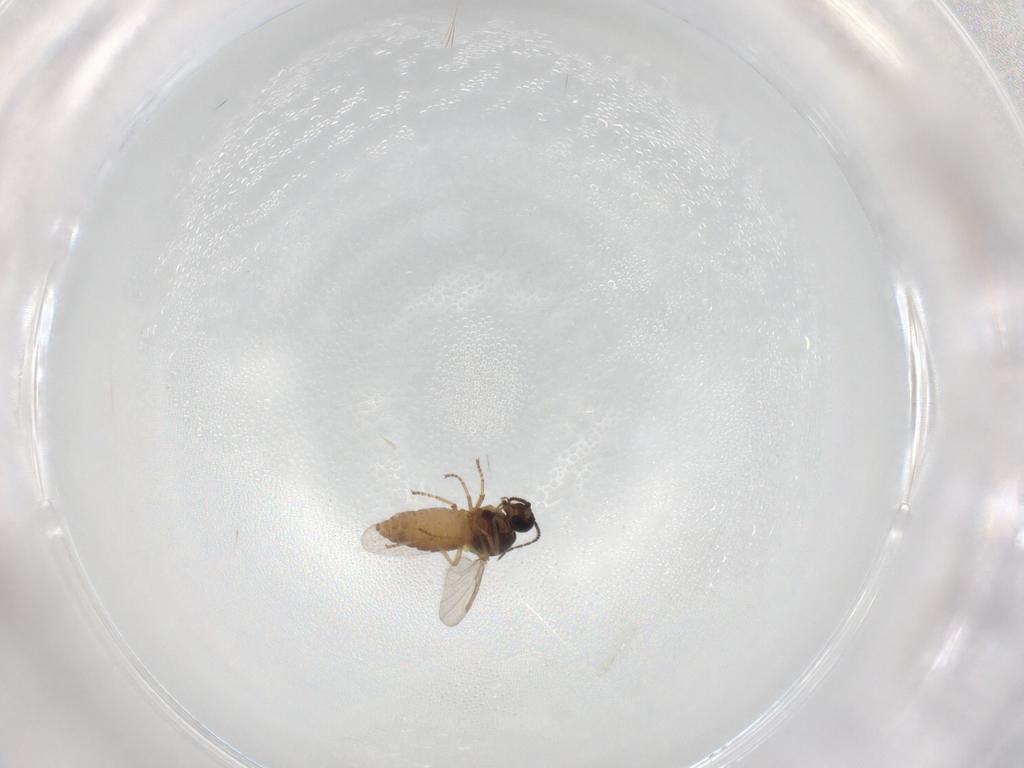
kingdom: Animalia
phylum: Arthropoda
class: Insecta
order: Diptera
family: Ceratopogonidae
